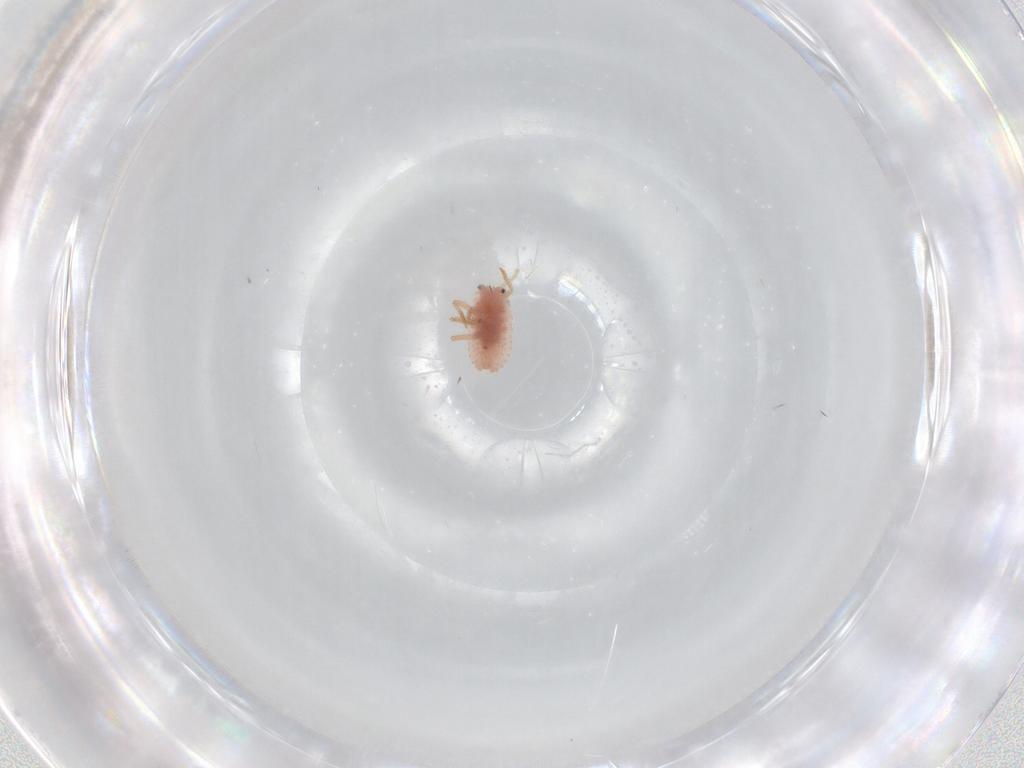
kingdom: Animalia
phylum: Arthropoda
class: Insecta
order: Hemiptera
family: Coccoidea_incertae_sedis
